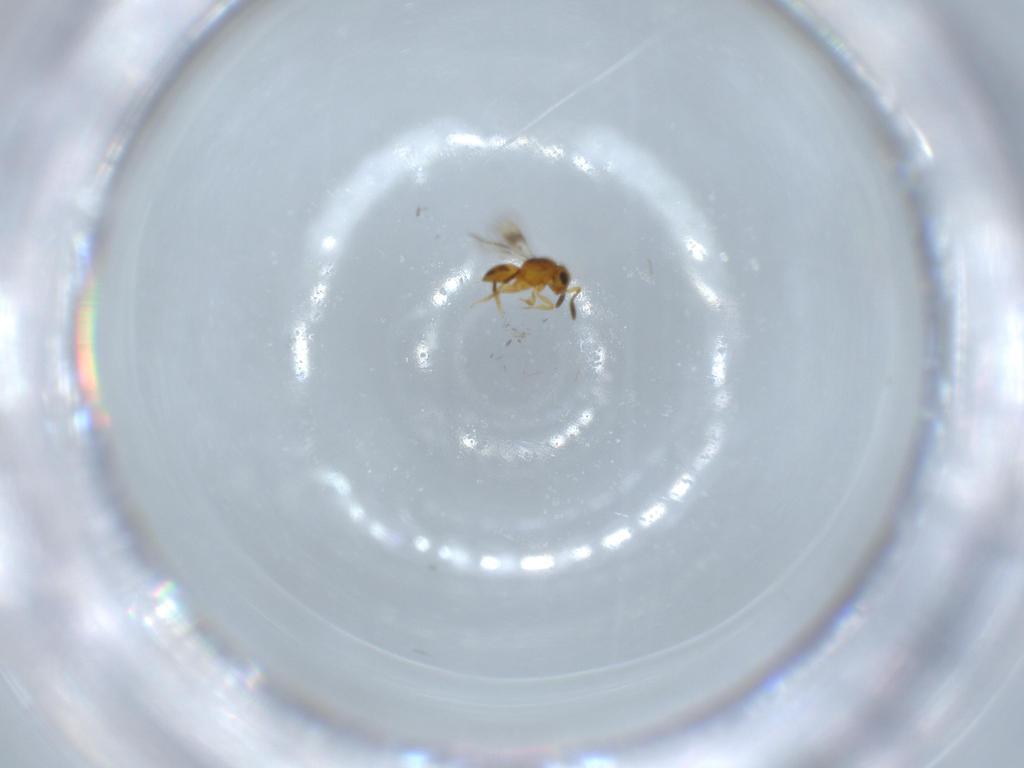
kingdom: Animalia
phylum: Arthropoda
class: Insecta
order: Hymenoptera
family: Scelionidae
